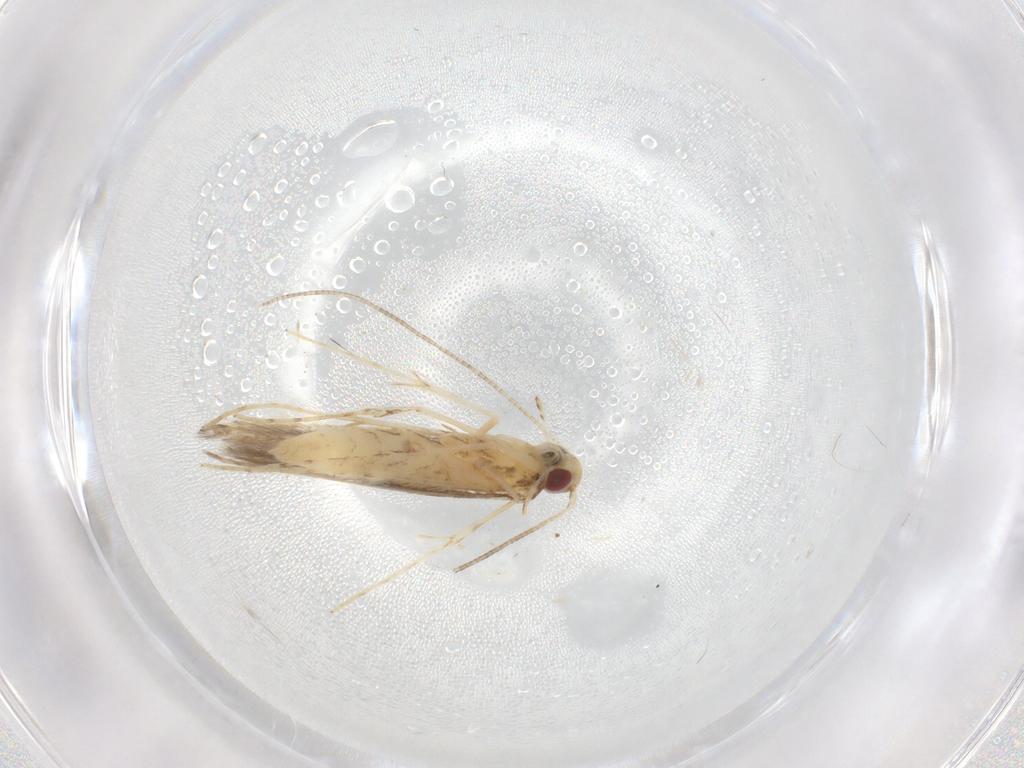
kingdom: Animalia
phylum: Arthropoda
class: Insecta
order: Lepidoptera
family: Gracillariidae
